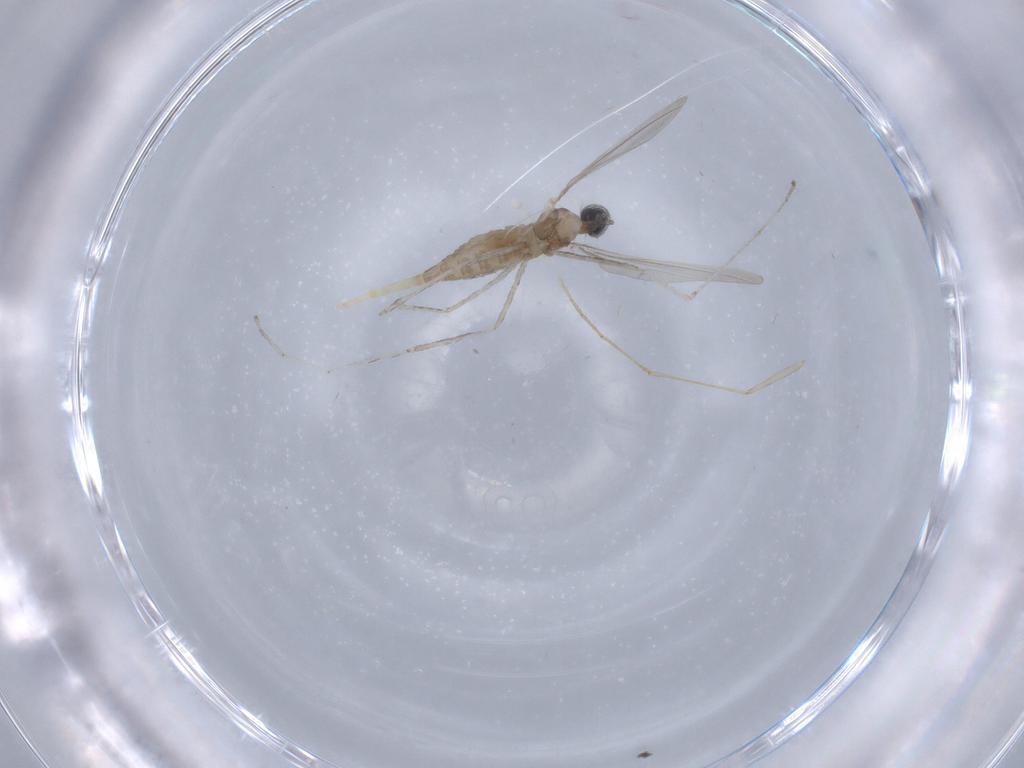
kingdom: Animalia
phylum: Arthropoda
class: Insecta
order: Diptera
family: Cecidomyiidae
